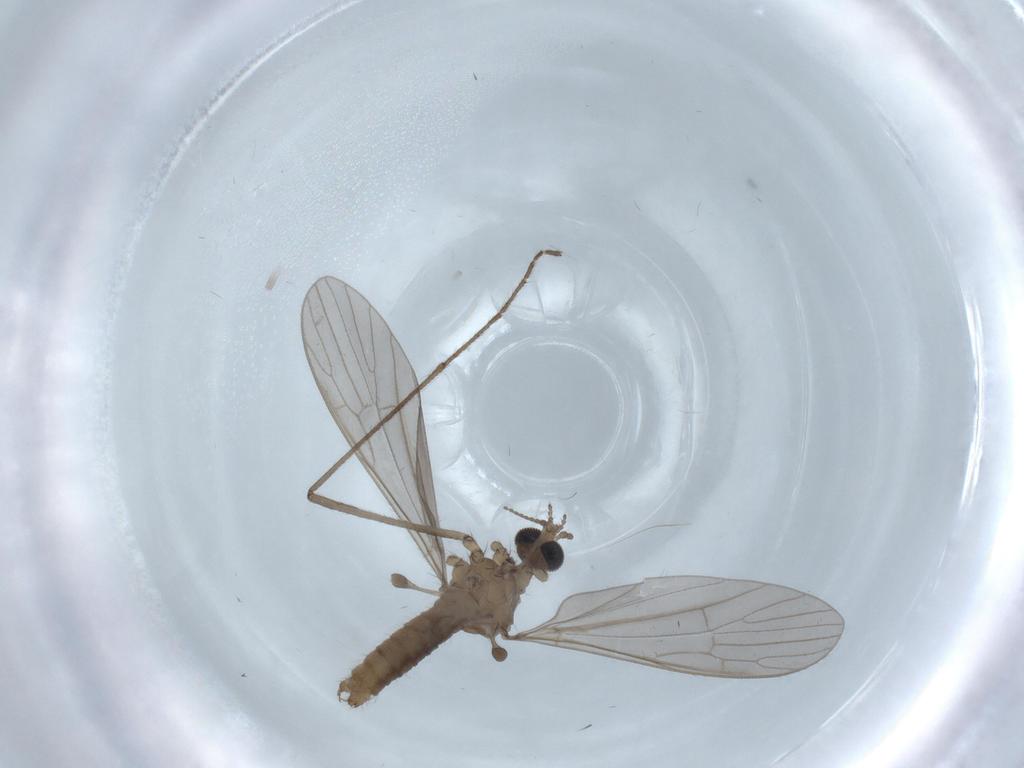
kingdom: Animalia
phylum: Arthropoda
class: Insecta
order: Diptera
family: Limoniidae
